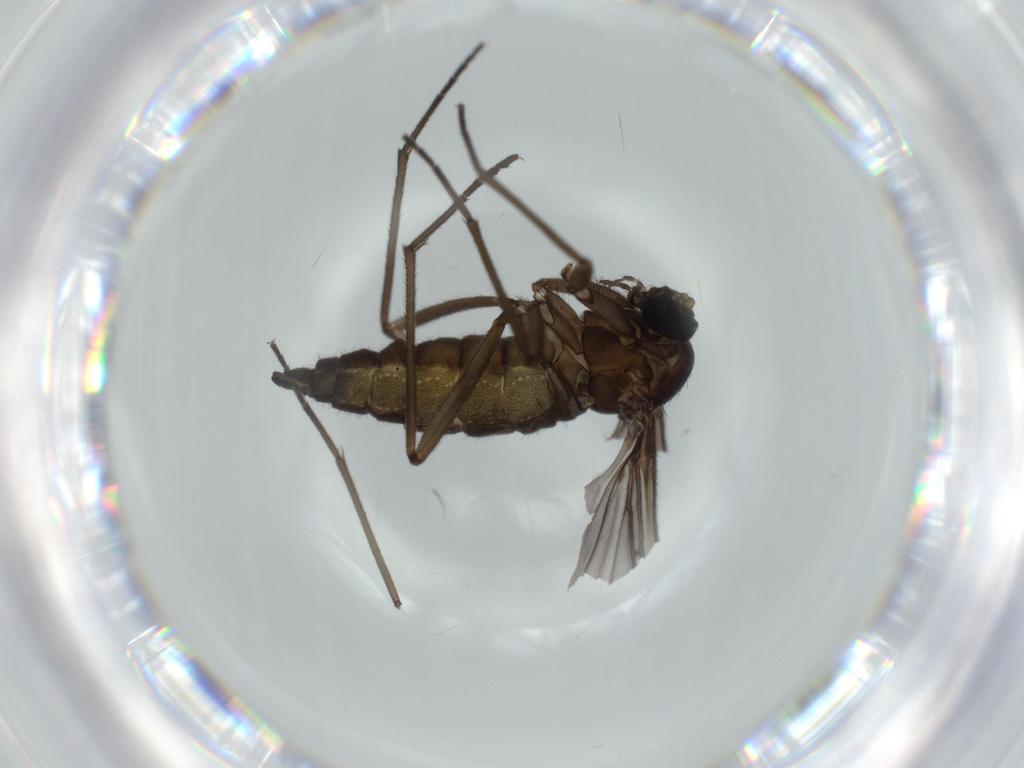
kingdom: Animalia
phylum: Arthropoda
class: Insecta
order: Diptera
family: Sciaridae
